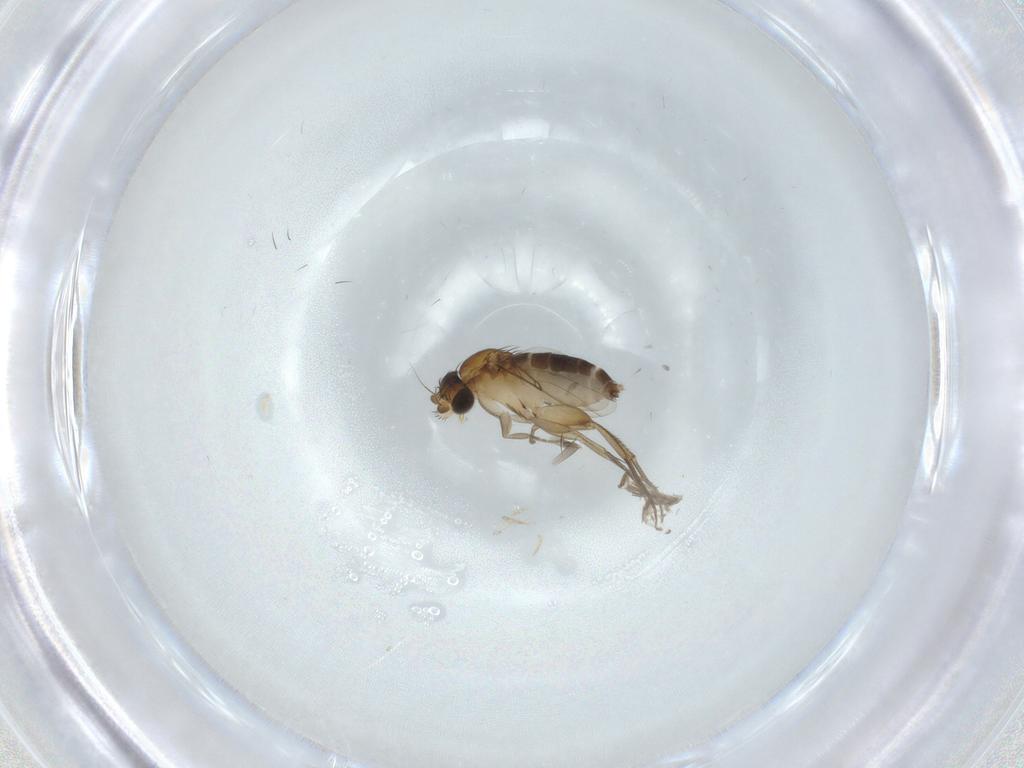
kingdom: Animalia
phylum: Arthropoda
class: Insecta
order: Diptera
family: Phoridae
